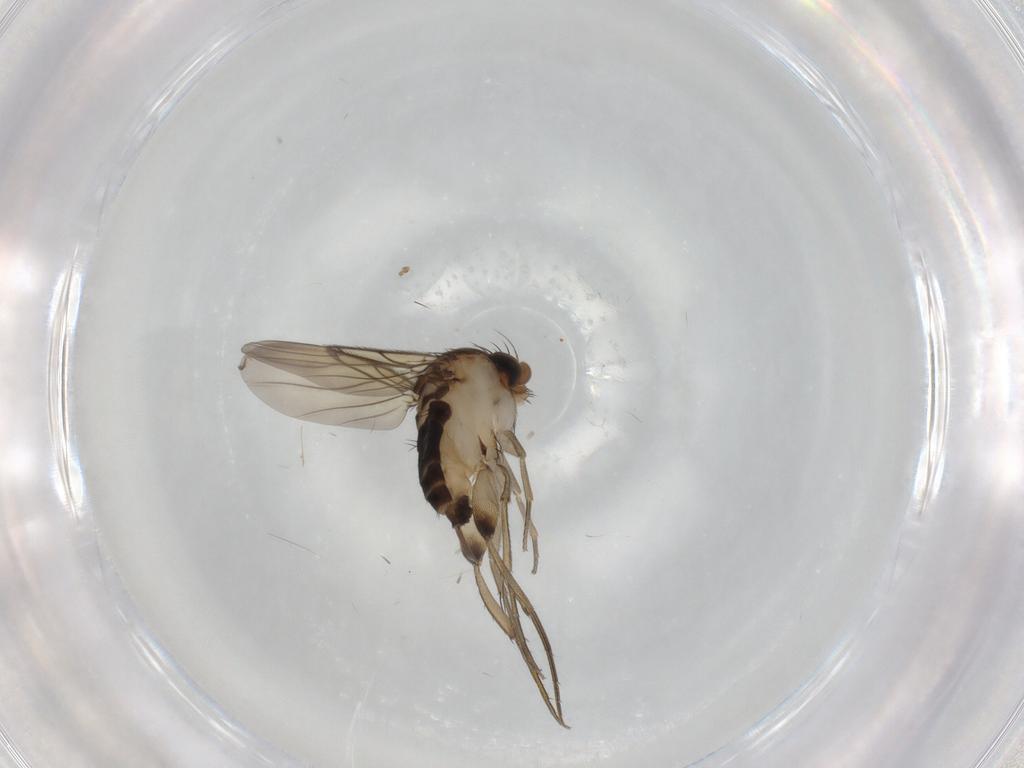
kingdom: Animalia
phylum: Arthropoda
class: Insecta
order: Diptera
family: Phoridae
